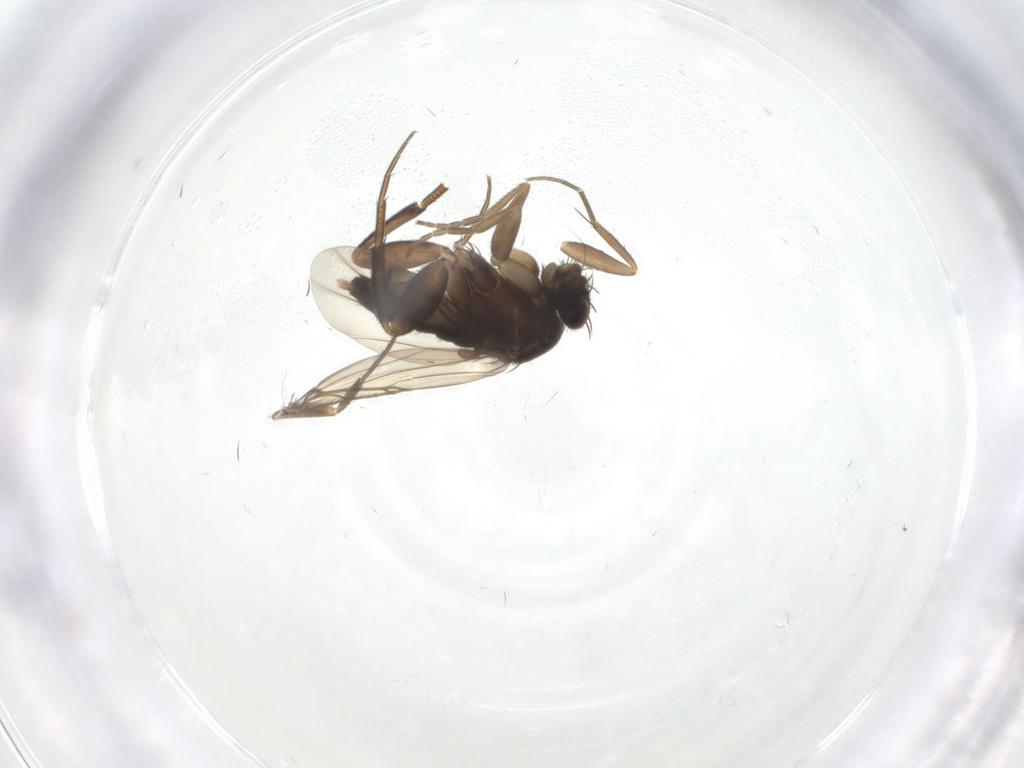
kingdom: Animalia
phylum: Arthropoda
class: Insecta
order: Diptera
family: Phoridae
